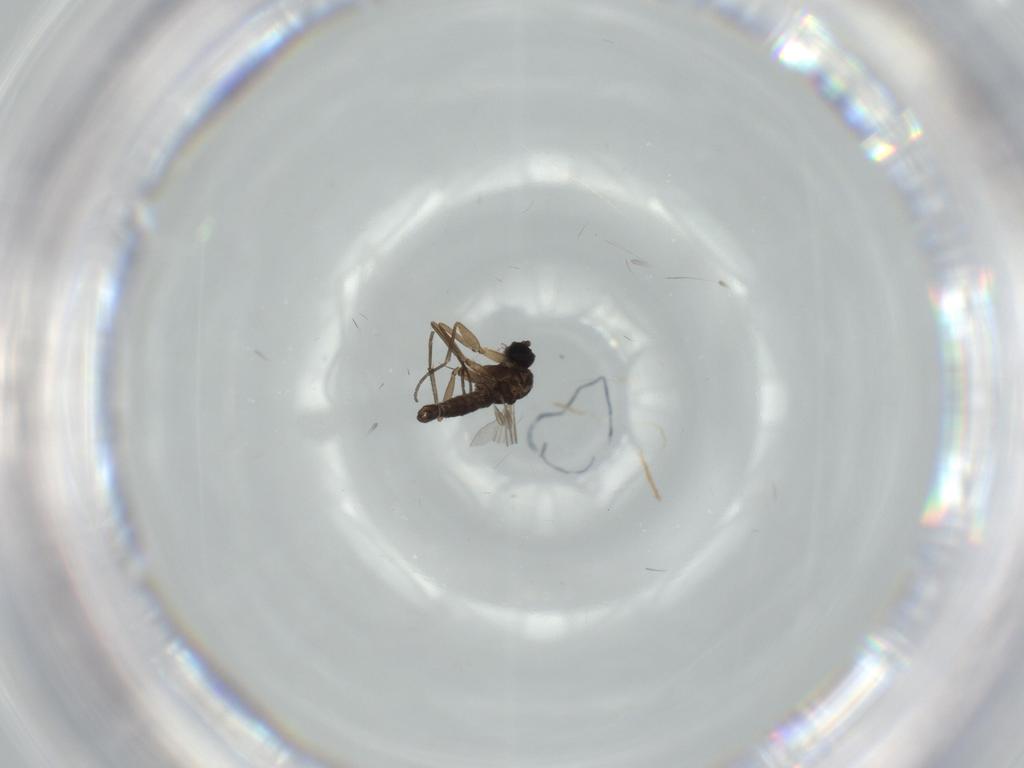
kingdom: Animalia
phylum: Arthropoda
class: Insecta
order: Diptera
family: Sciaridae
